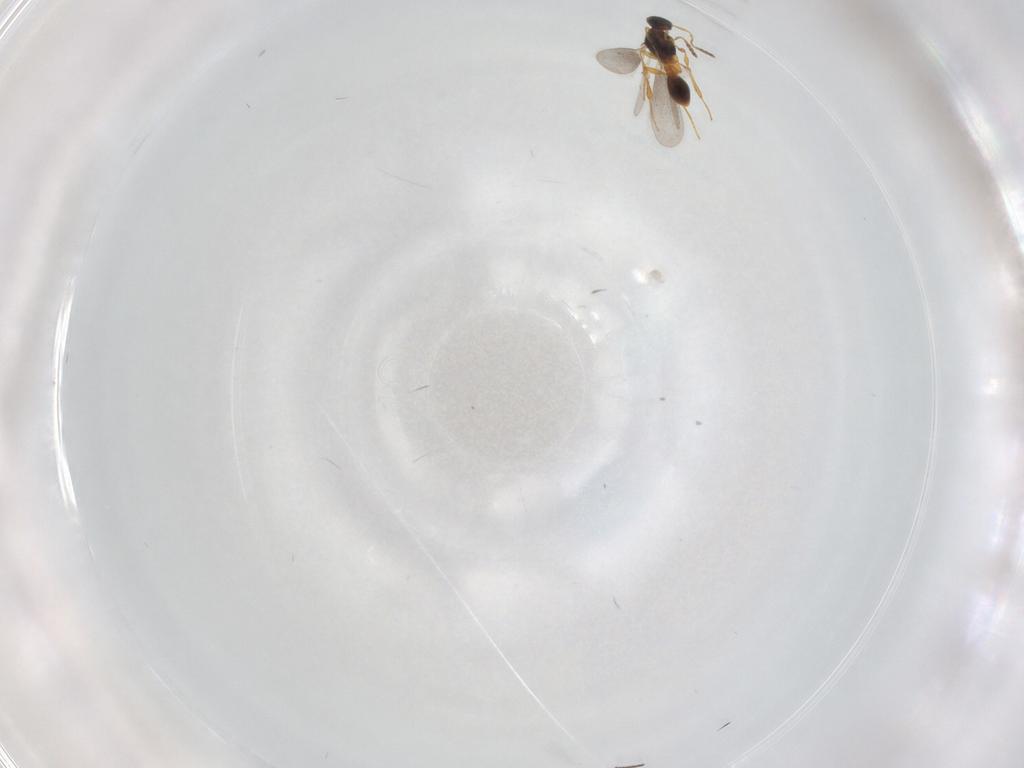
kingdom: Animalia
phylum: Arthropoda
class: Insecta
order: Hymenoptera
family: Platygastridae
